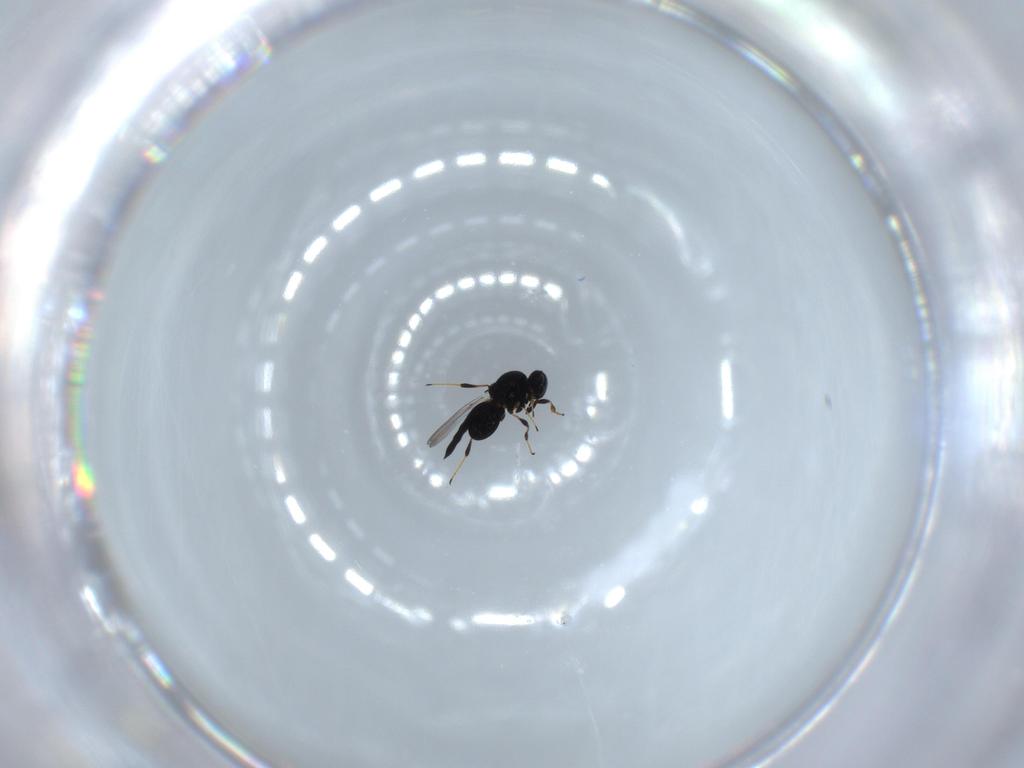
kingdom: Animalia
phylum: Arthropoda
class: Insecta
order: Hymenoptera
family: Platygastridae
